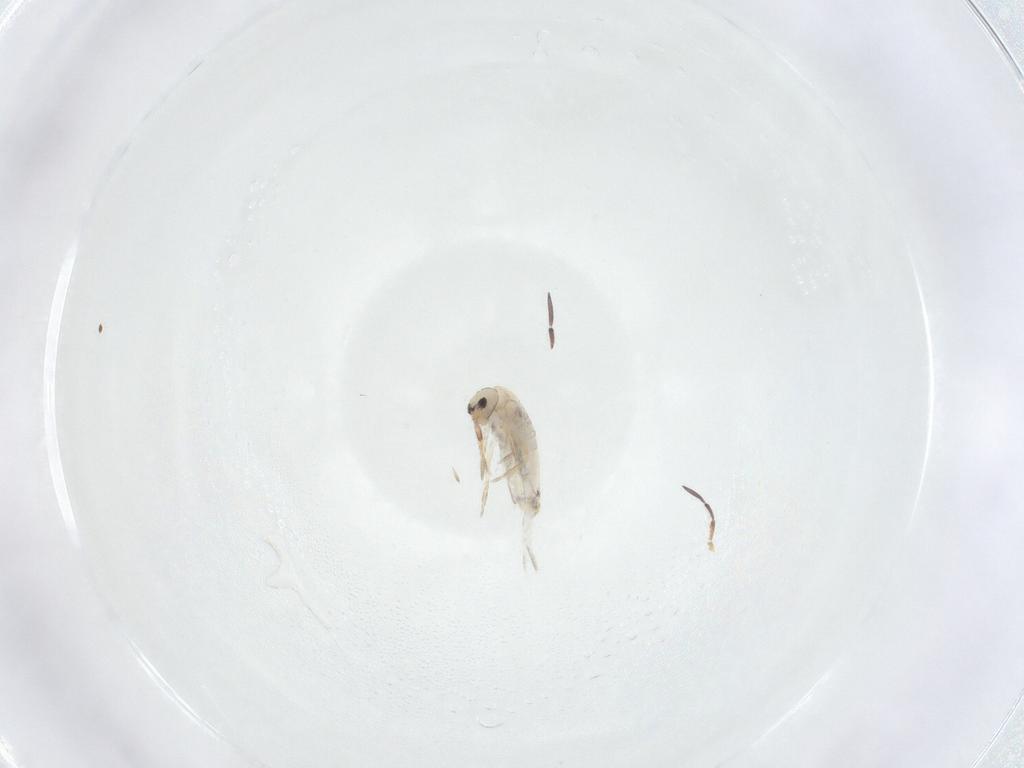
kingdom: Animalia
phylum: Arthropoda
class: Collembola
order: Entomobryomorpha
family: Entomobryidae
